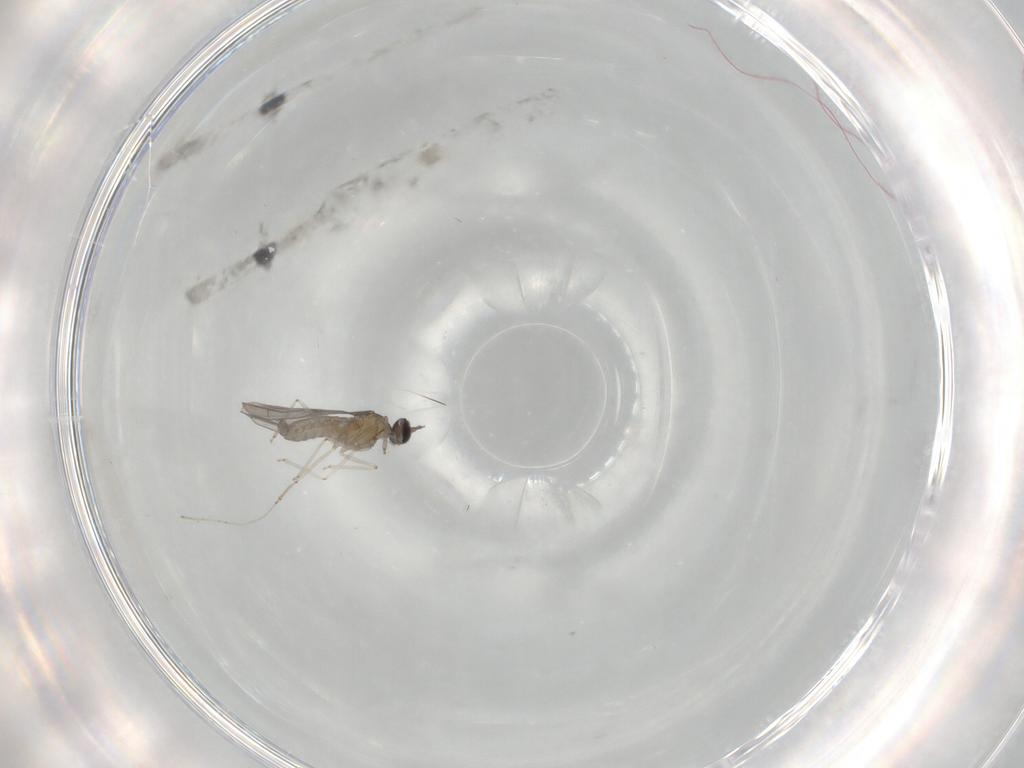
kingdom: Animalia
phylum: Arthropoda
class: Insecta
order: Diptera
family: Cecidomyiidae
